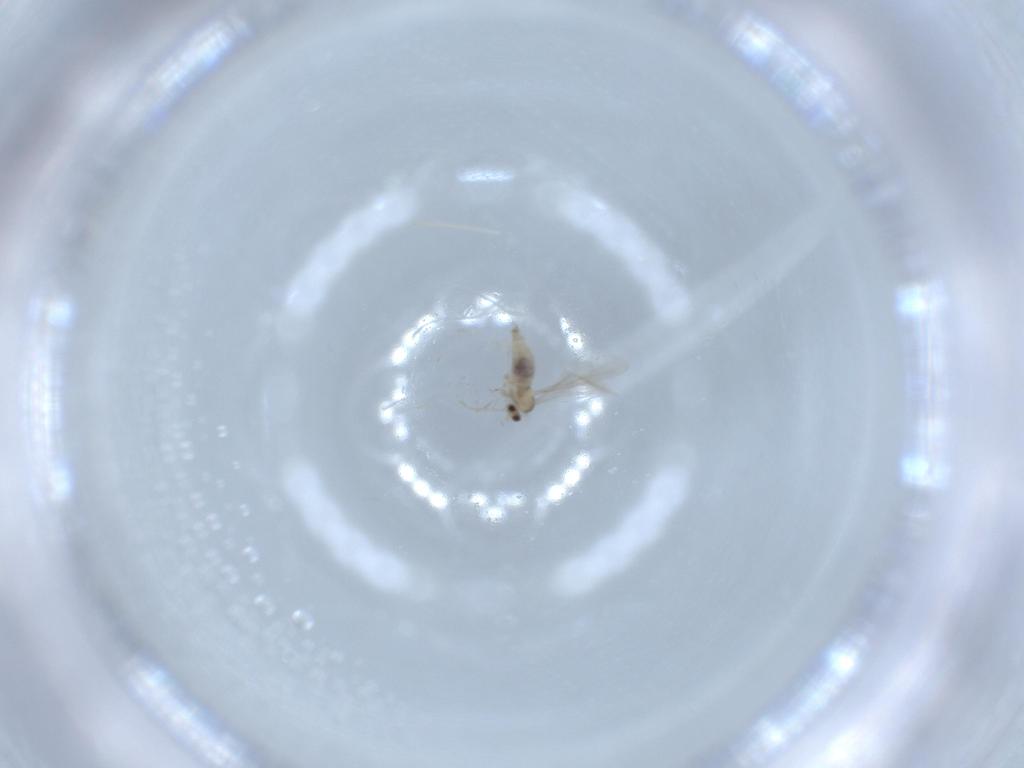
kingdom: Animalia
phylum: Arthropoda
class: Insecta
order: Diptera
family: Cecidomyiidae
